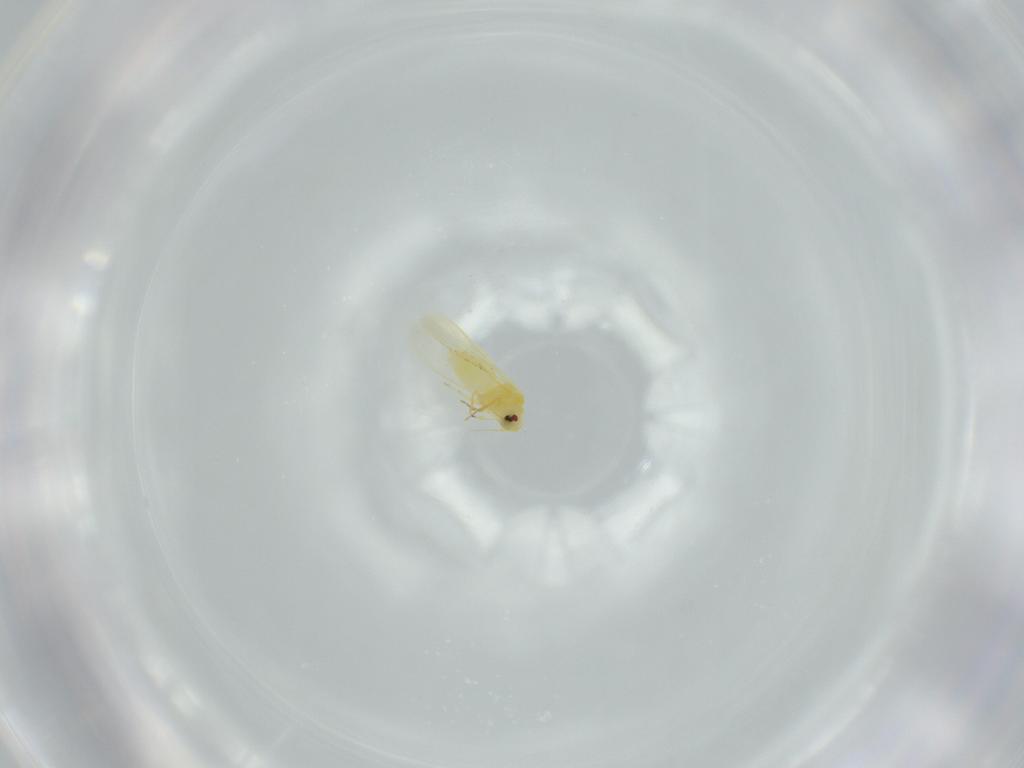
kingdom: Animalia
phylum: Arthropoda
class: Insecta
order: Hemiptera
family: Aleyrodidae
